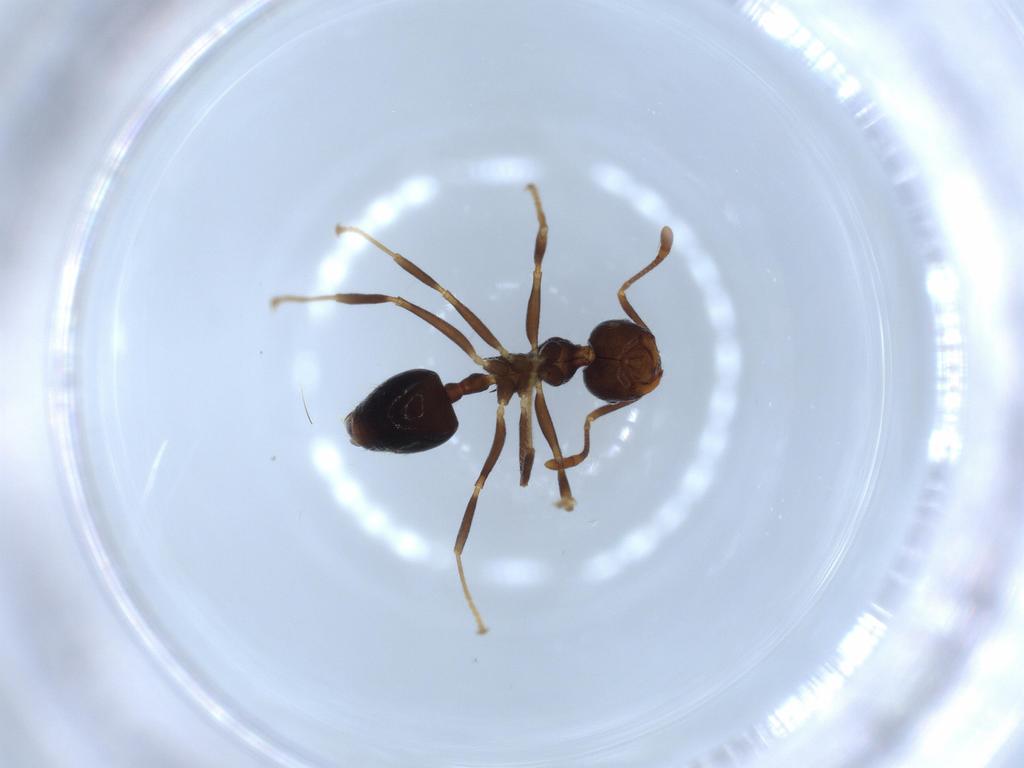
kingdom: Animalia
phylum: Arthropoda
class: Insecta
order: Hymenoptera
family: Formicidae
